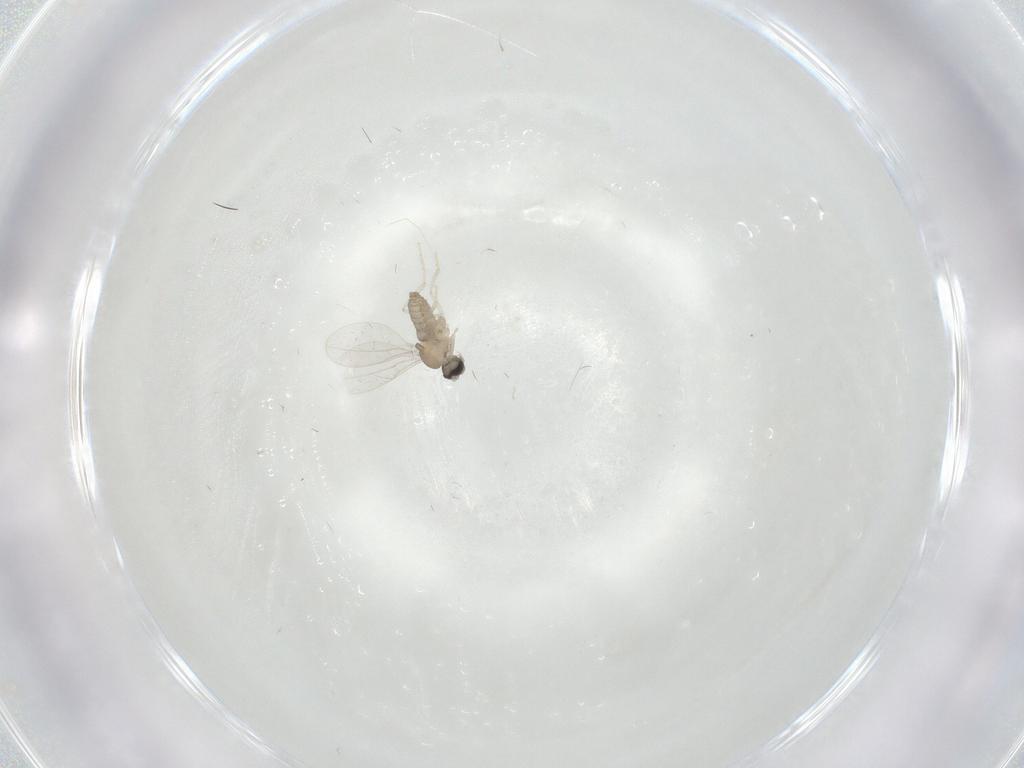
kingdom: Animalia
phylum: Arthropoda
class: Insecta
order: Diptera
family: Cecidomyiidae
